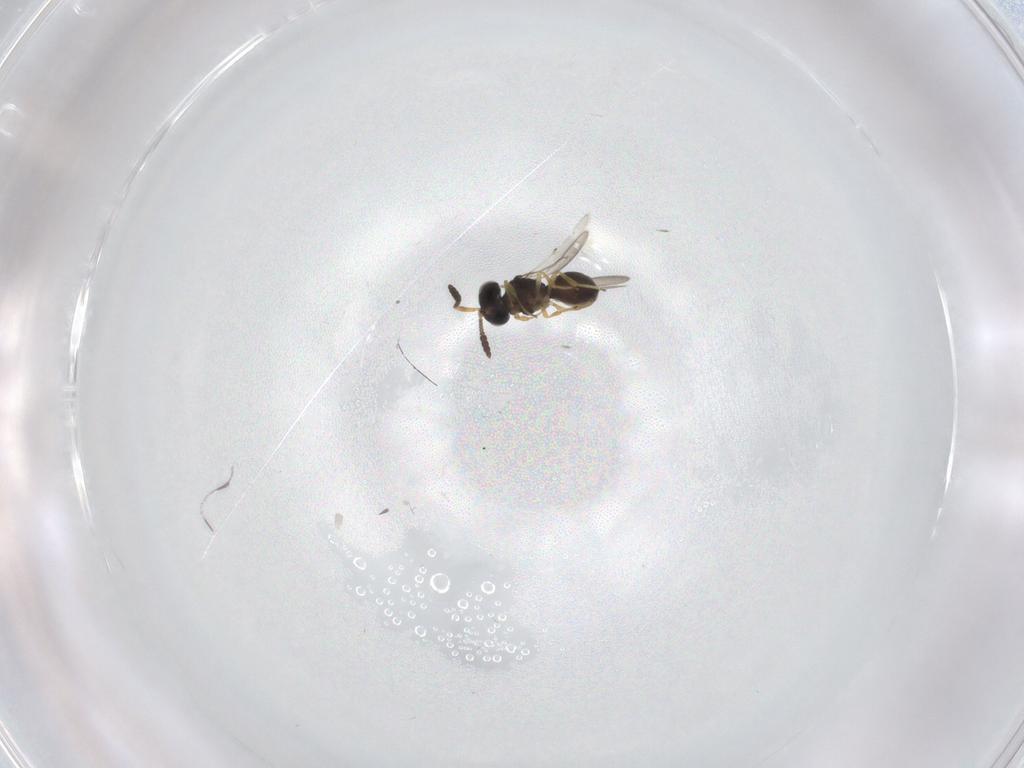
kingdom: Animalia
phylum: Arthropoda
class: Insecta
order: Hymenoptera
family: Scelionidae
